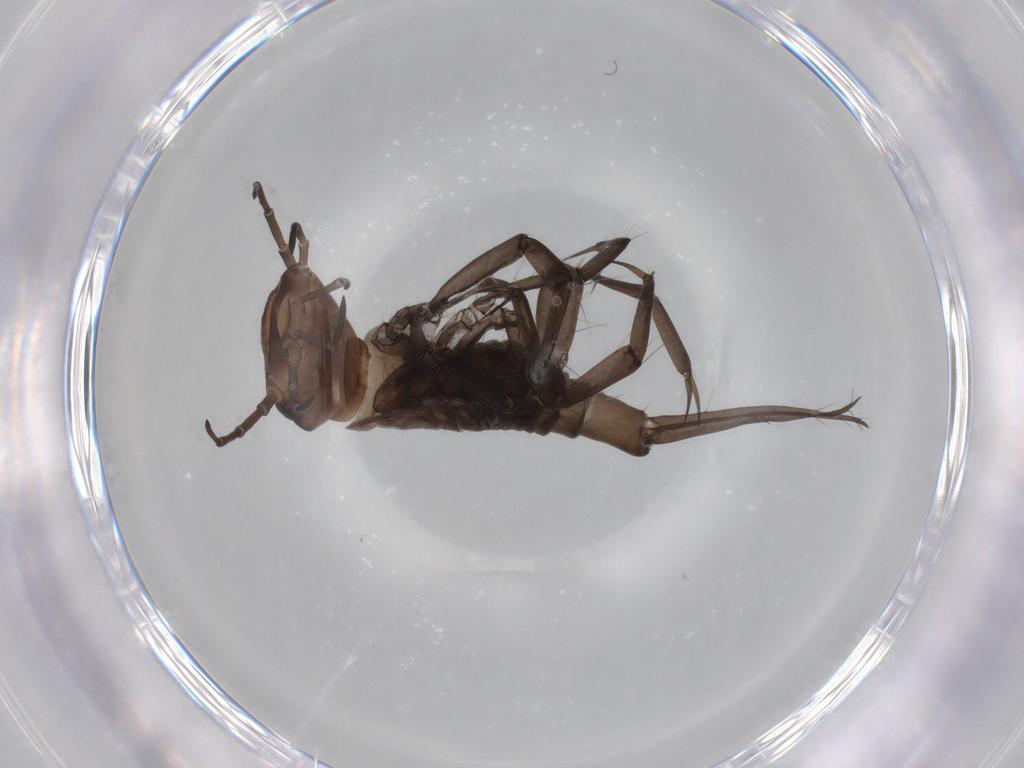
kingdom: Animalia
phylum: Arthropoda
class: Insecta
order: Coleoptera
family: Dytiscidae
